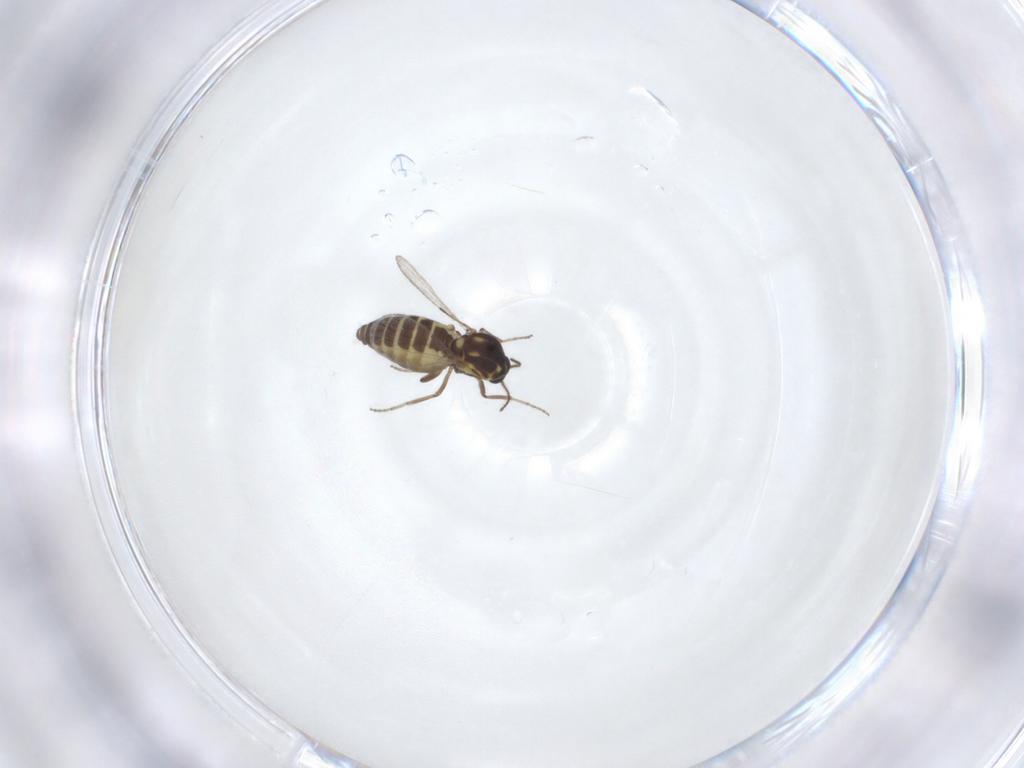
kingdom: Animalia
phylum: Arthropoda
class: Insecta
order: Diptera
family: Ceratopogonidae
